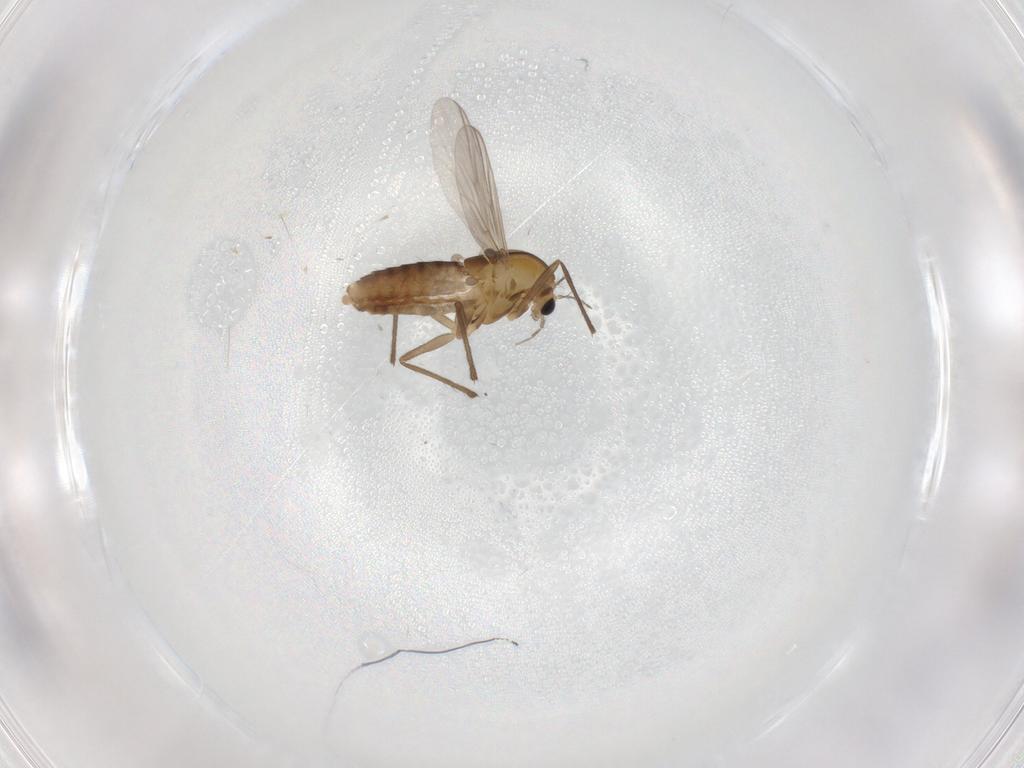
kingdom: Animalia
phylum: Arthropoda
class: Insecta
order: Diptera
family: Chironomidae
